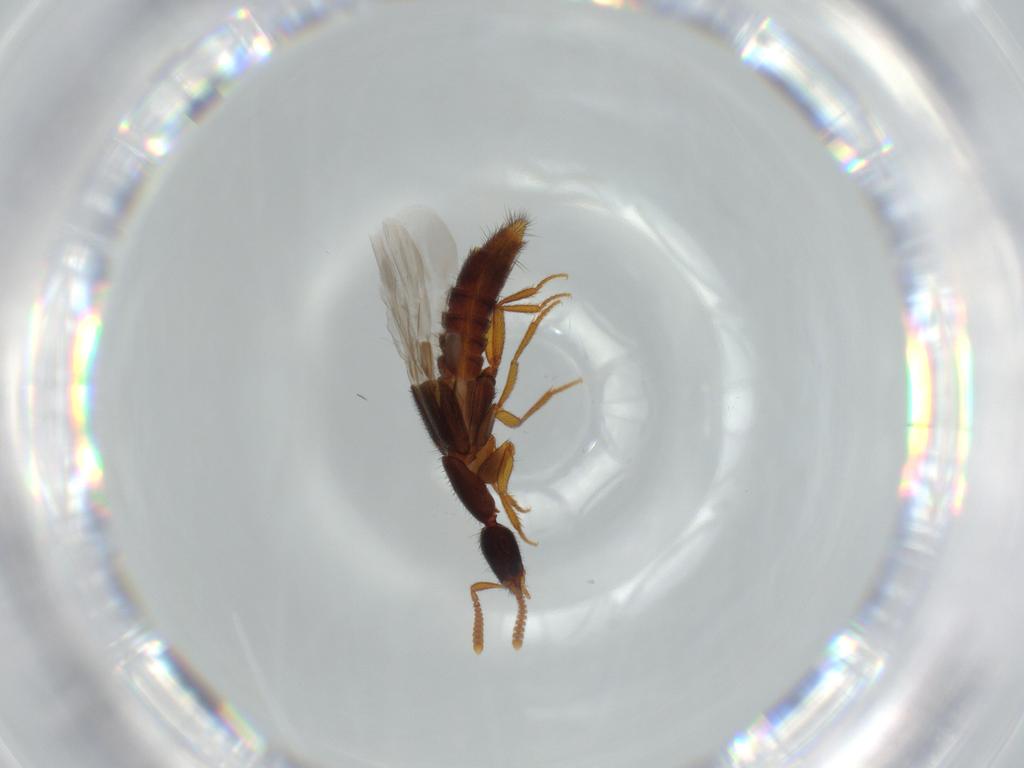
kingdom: Animalia
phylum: Arthropoda
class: Insecta
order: Coleoptera
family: Staphylinidae
